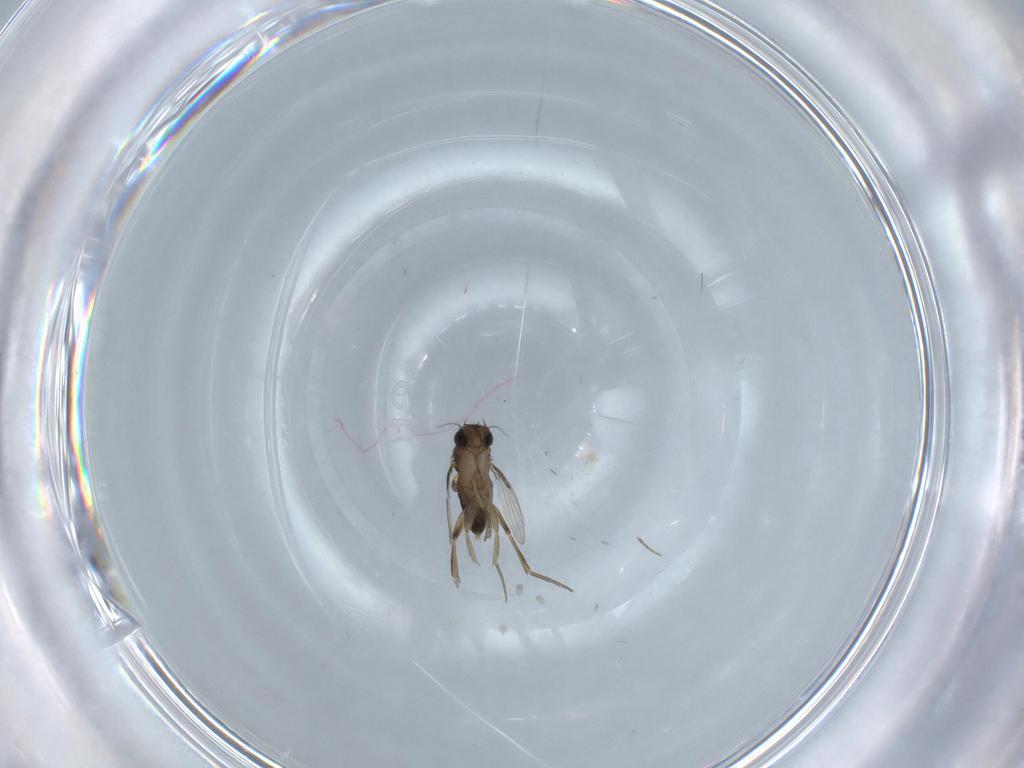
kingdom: Animalia
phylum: Arthropoda
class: Insecta
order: Diptera
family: Phoridae
